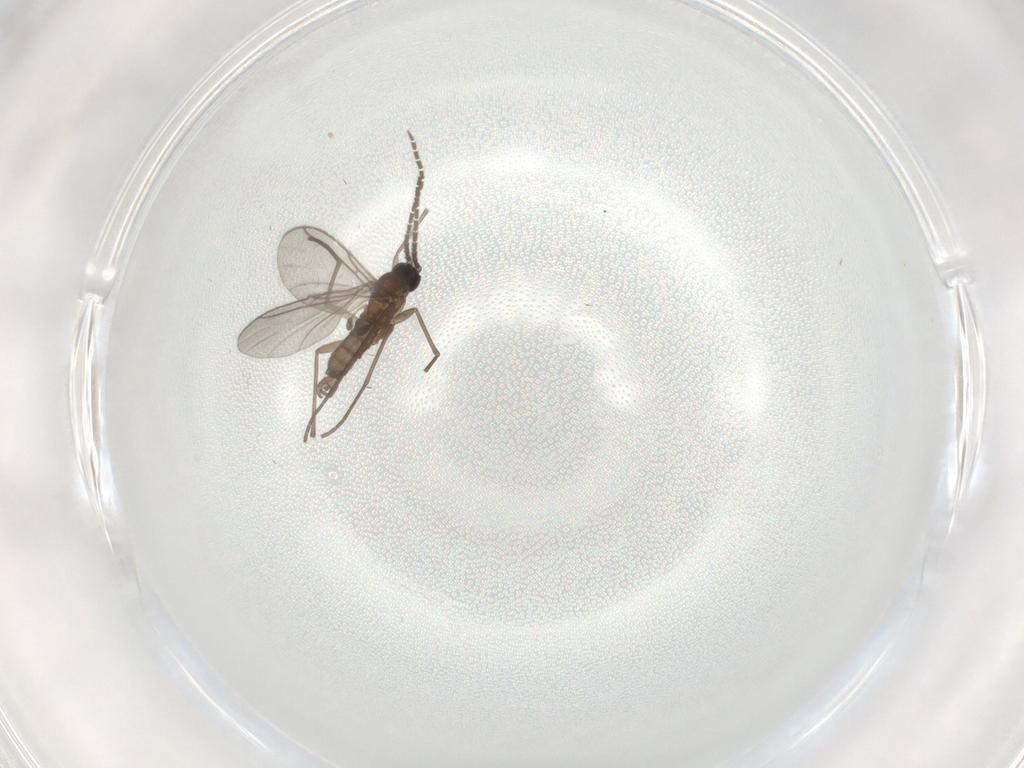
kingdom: Animalia
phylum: Arthropoda
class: Insecta
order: Diptera
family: Sciaridae
